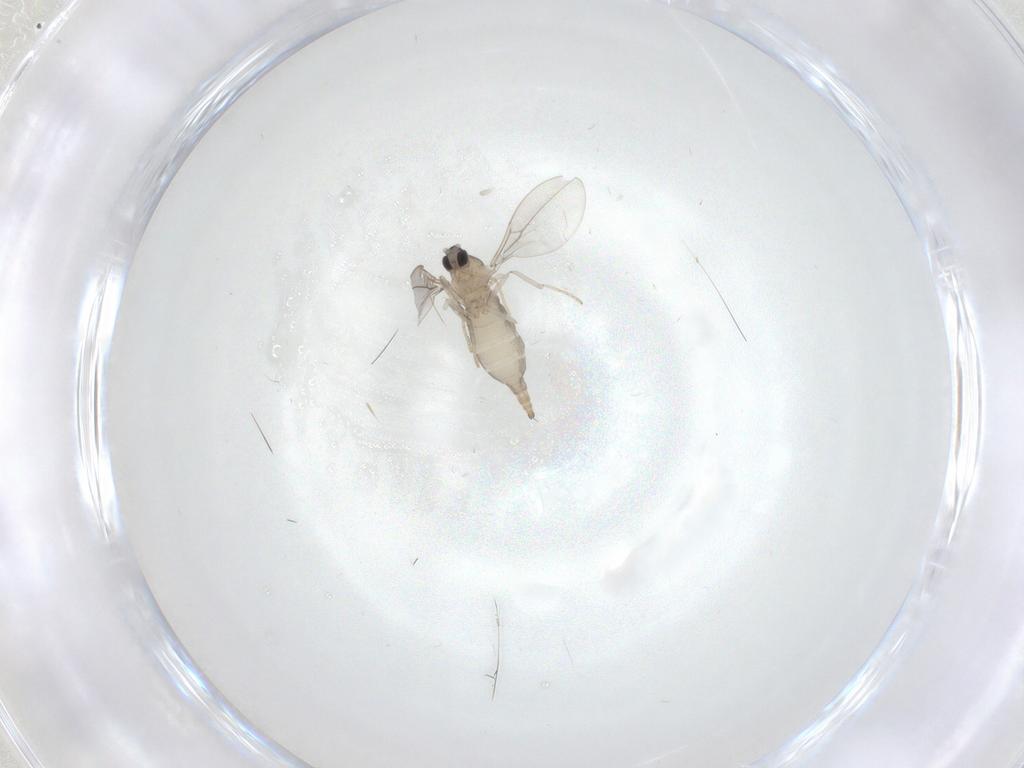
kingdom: Animalia
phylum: Arthropoda
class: Insecta
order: Diptera
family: Cecidomyiidae
